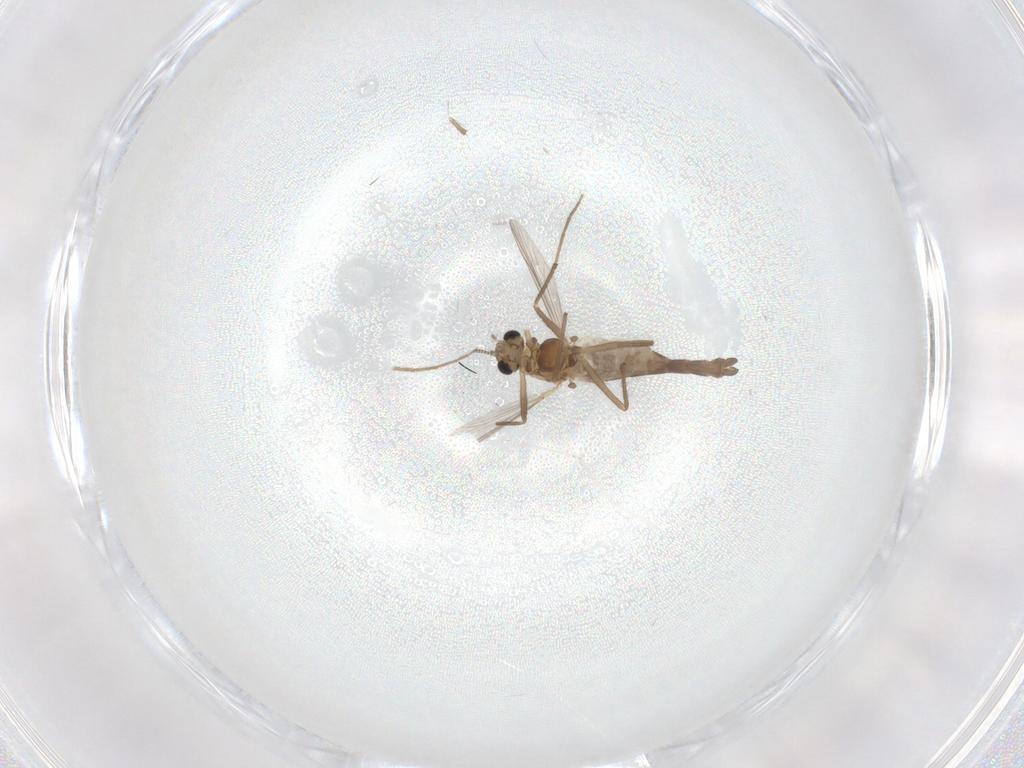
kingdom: Animalia
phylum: Arthropoda
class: Insecta
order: Diptera
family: Chironomidae
